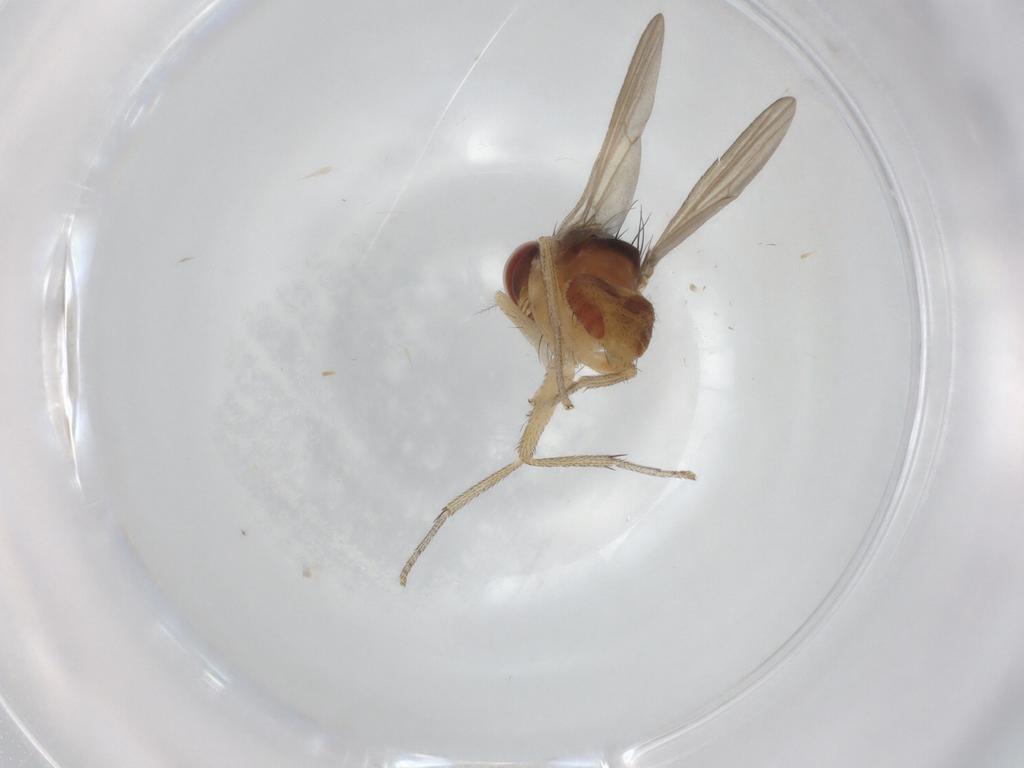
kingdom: Animalia
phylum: Arthropoda
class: Insecta
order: Diptera
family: Lauxaniidae
